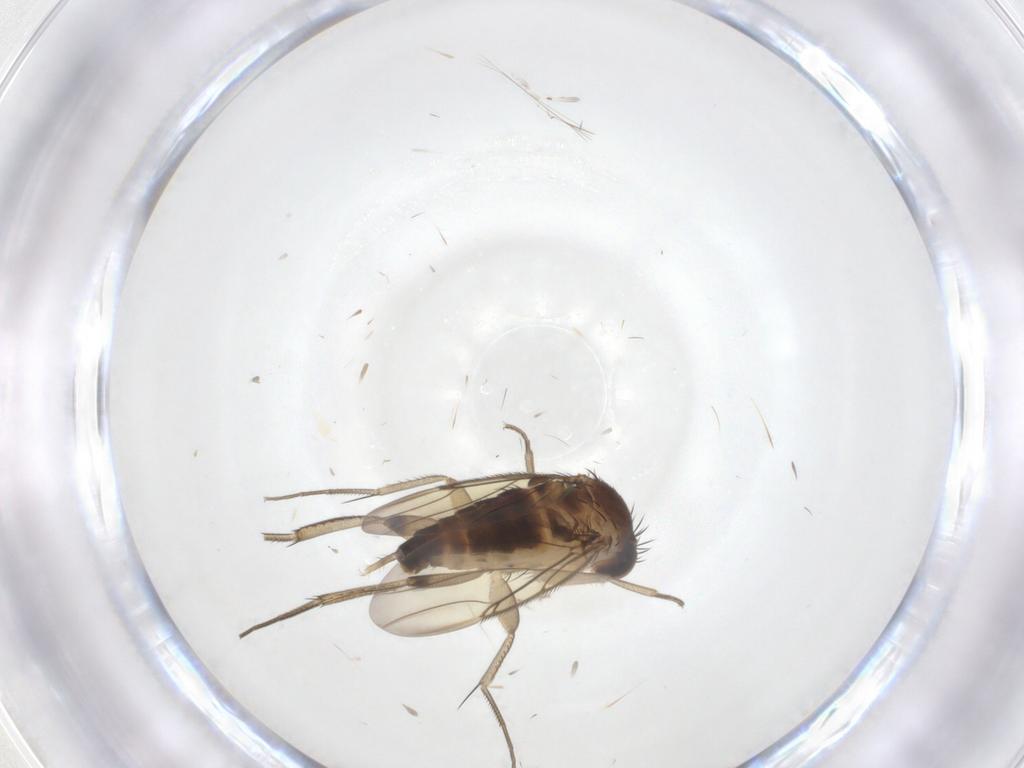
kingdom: Animalia
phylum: Arthropoda
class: Insecta
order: Diptera
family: Phoridae
